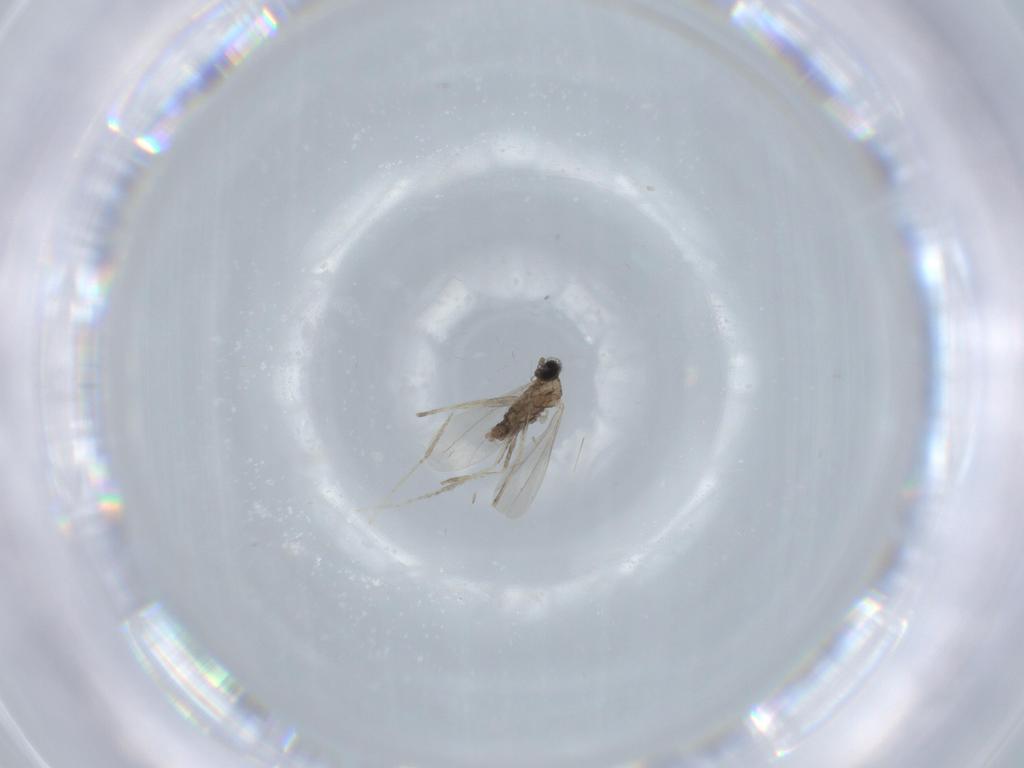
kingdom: Animalia
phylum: Arthropoda
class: Insecta
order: Diptera
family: Cecidomyiidae
